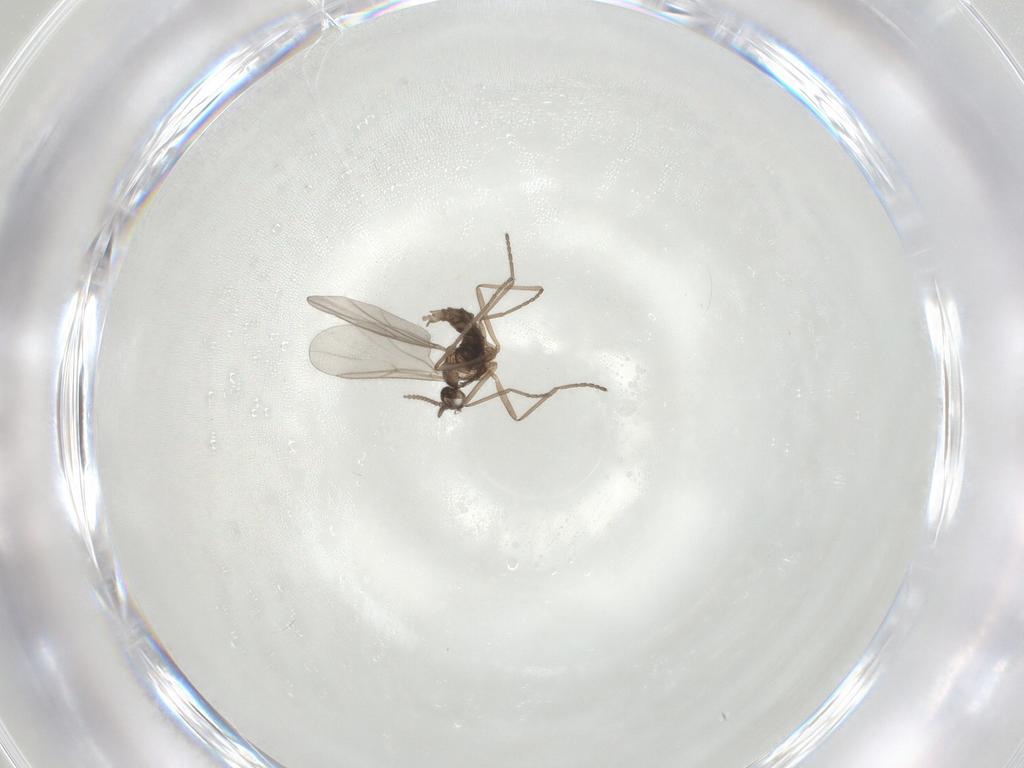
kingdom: Animalia
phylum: Arthropoda
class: Insecta
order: Diptera
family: Cecidomyiidae
